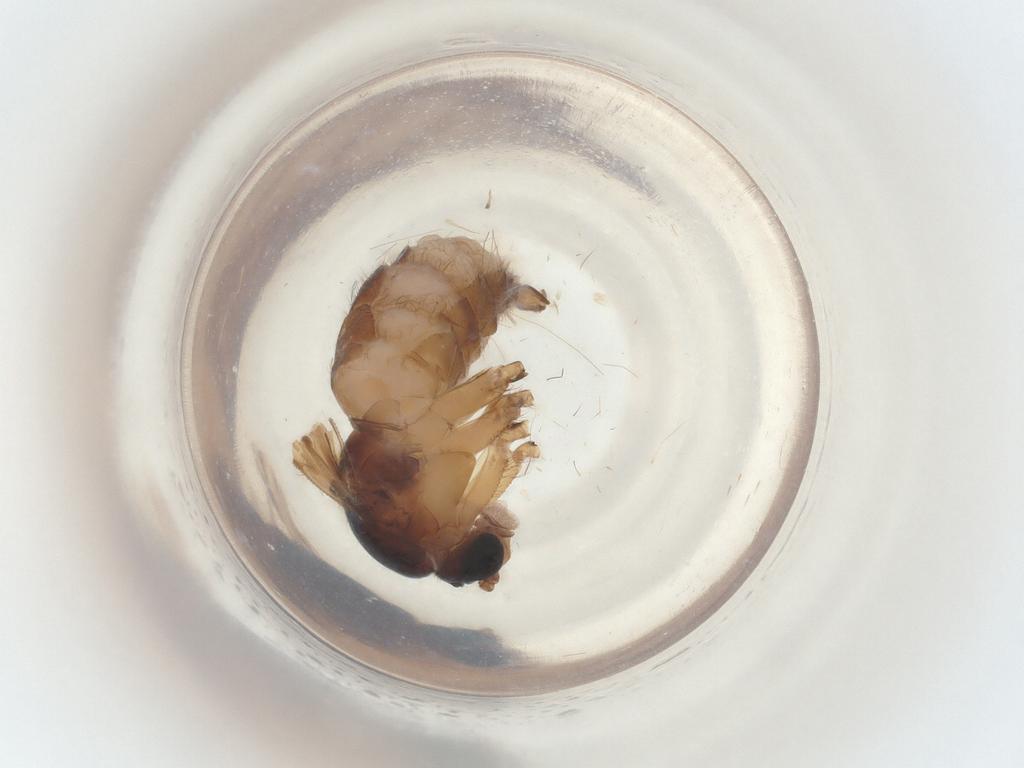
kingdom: Animalia
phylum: Arthropoda
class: Insecta
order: Diptera
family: Sciaridae
